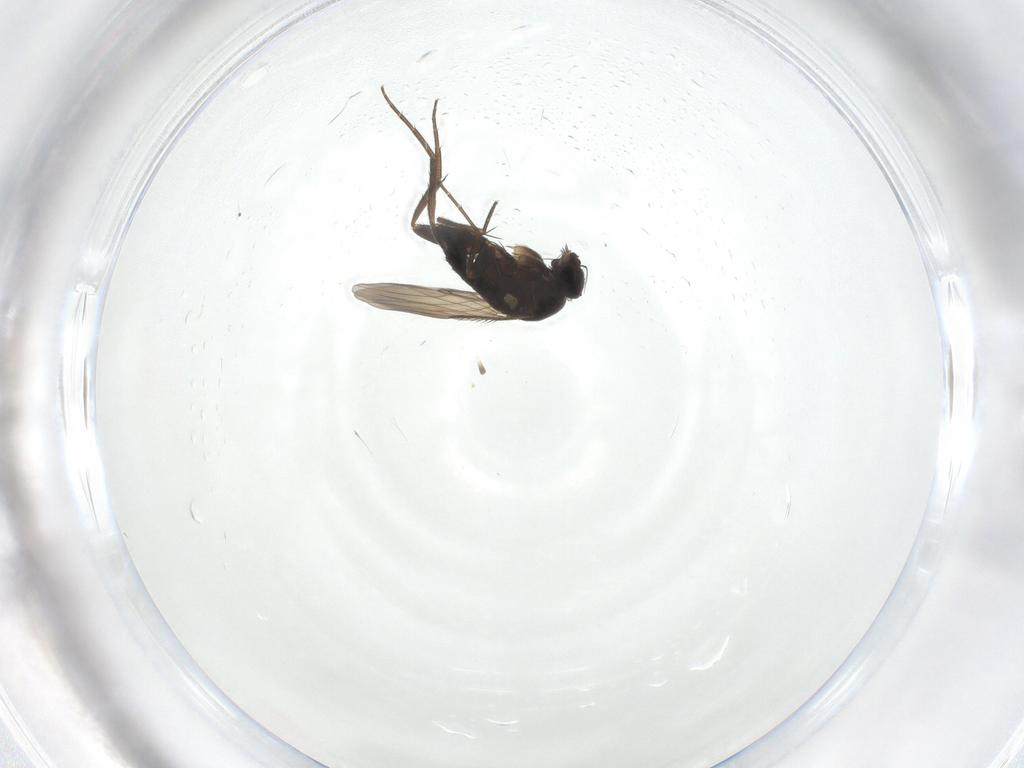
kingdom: Animalia
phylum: Arthropoda
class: Insecta
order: Diptera
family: Phoridae
